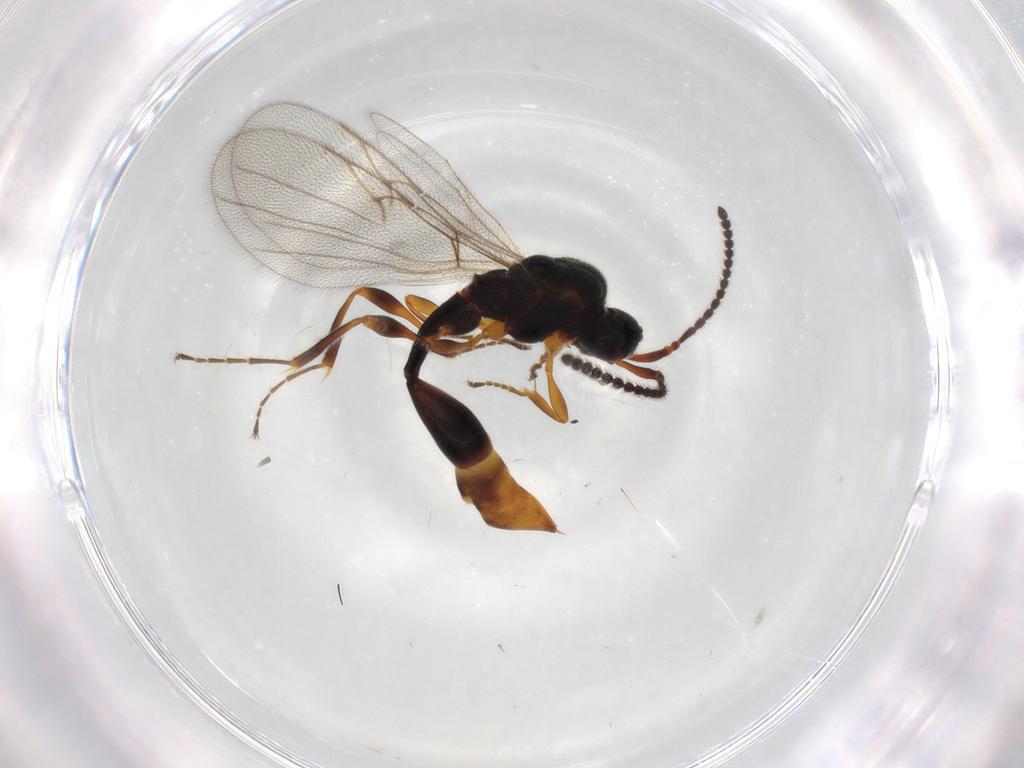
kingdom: Animalia
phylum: Arthropoda
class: Insecta
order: Hymenoptera
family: Diapriidae
